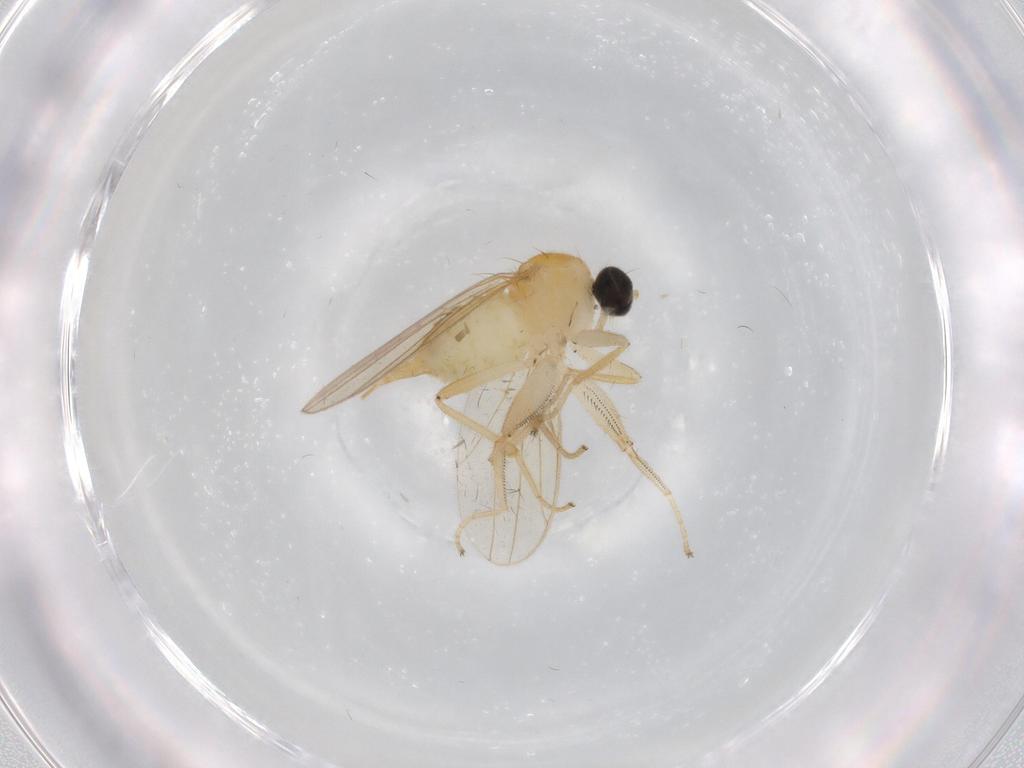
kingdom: Animalia
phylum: Arthropoda
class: Insecta
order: Diptera
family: Hybotidae
